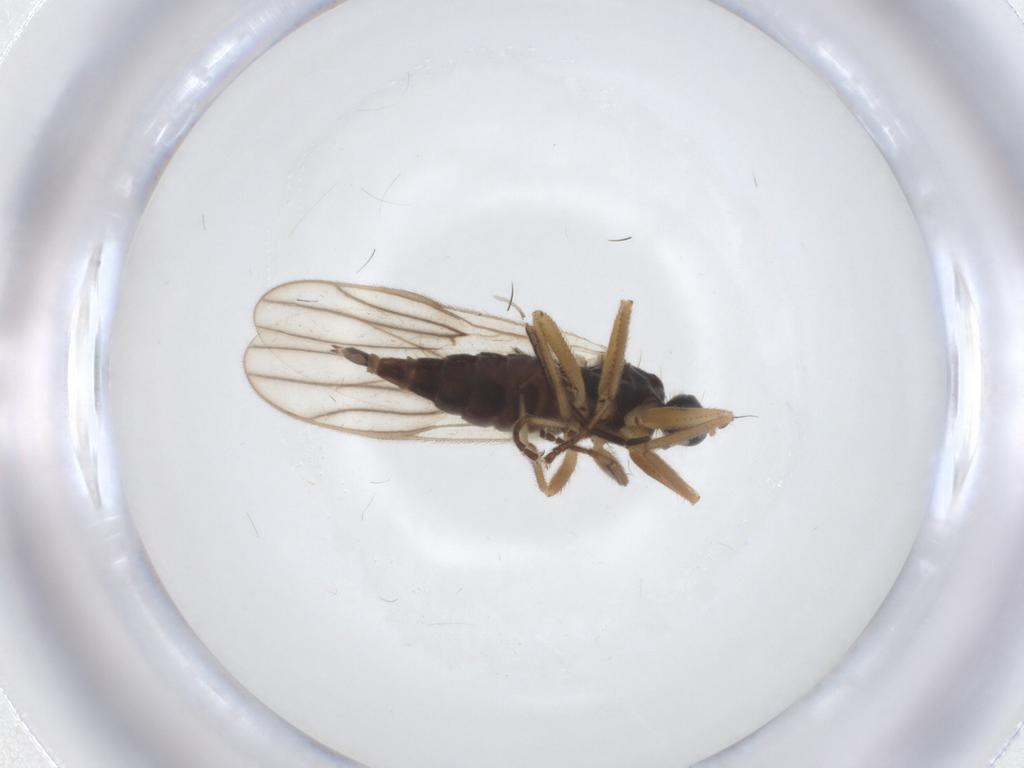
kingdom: Animalia
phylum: Arthropoda
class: Insecta
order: Diptera
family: Hybotidae
